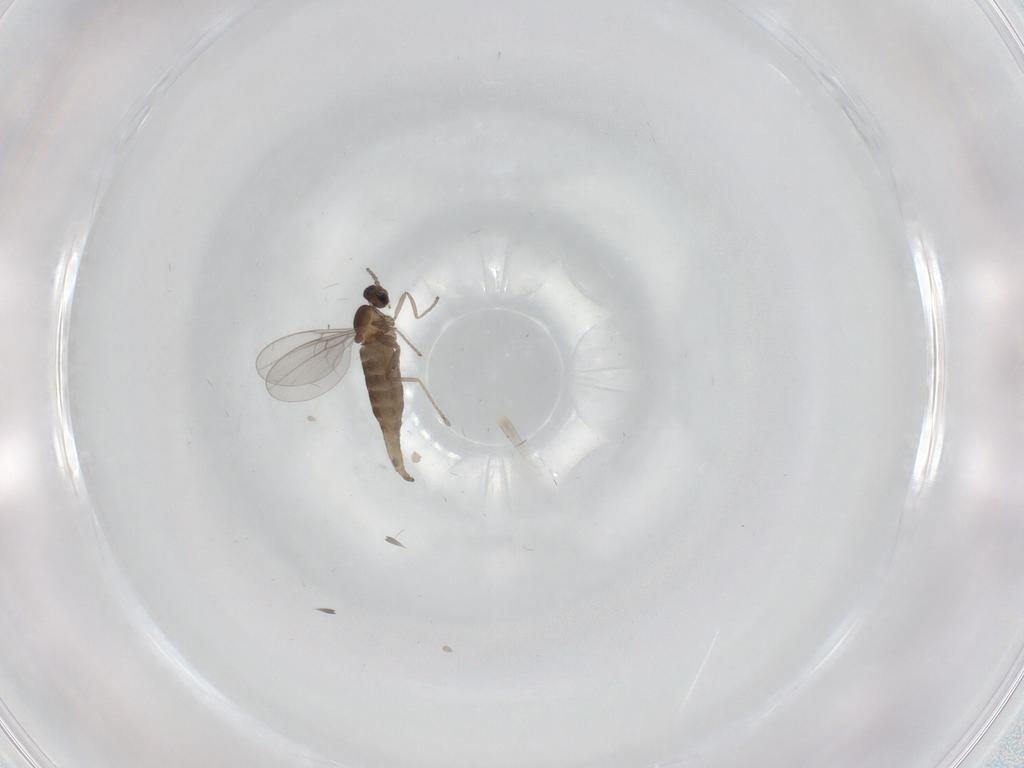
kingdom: Animalia
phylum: Arthropoda
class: Insecta
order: Diptera
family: Cecidomyiidae
